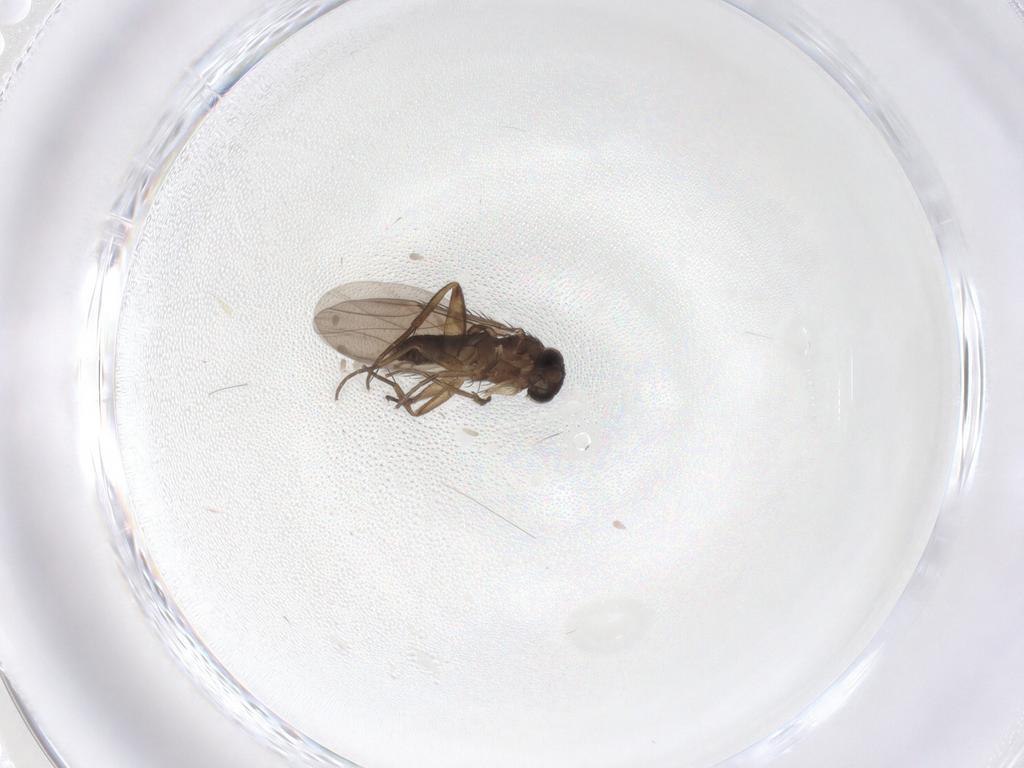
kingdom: Animalia
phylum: Arthropoda
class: Insecta
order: Diptera
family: Phoridae
